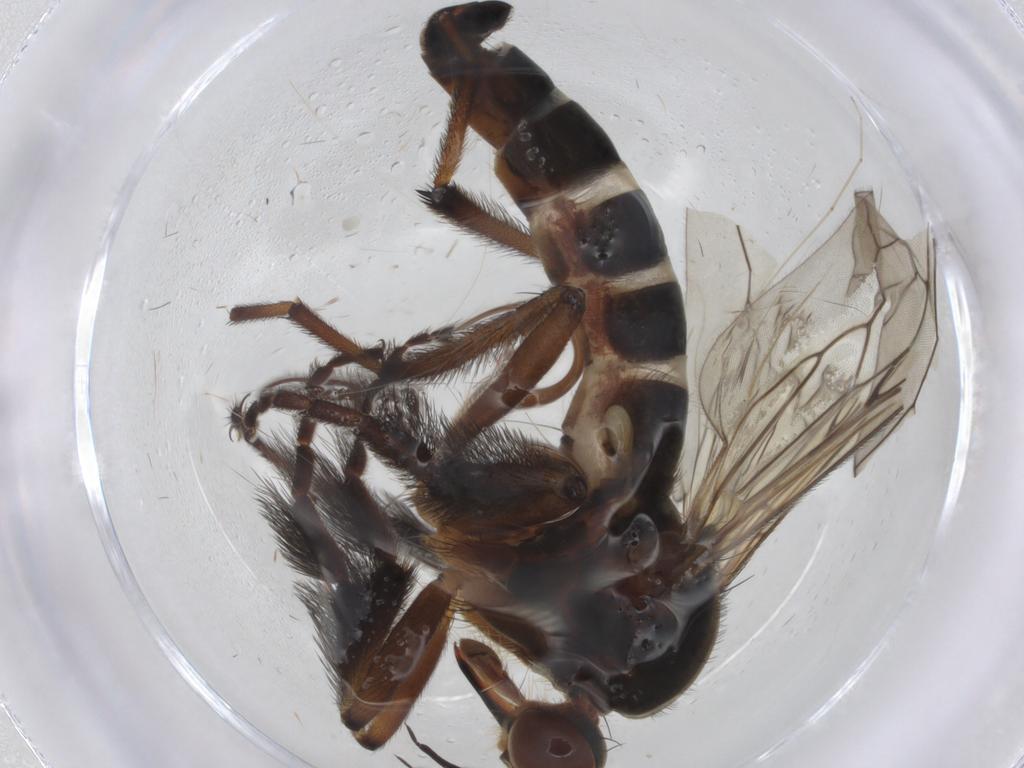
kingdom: Animalia
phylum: Arthropoda
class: Insecta
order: Diptera
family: Empididae
